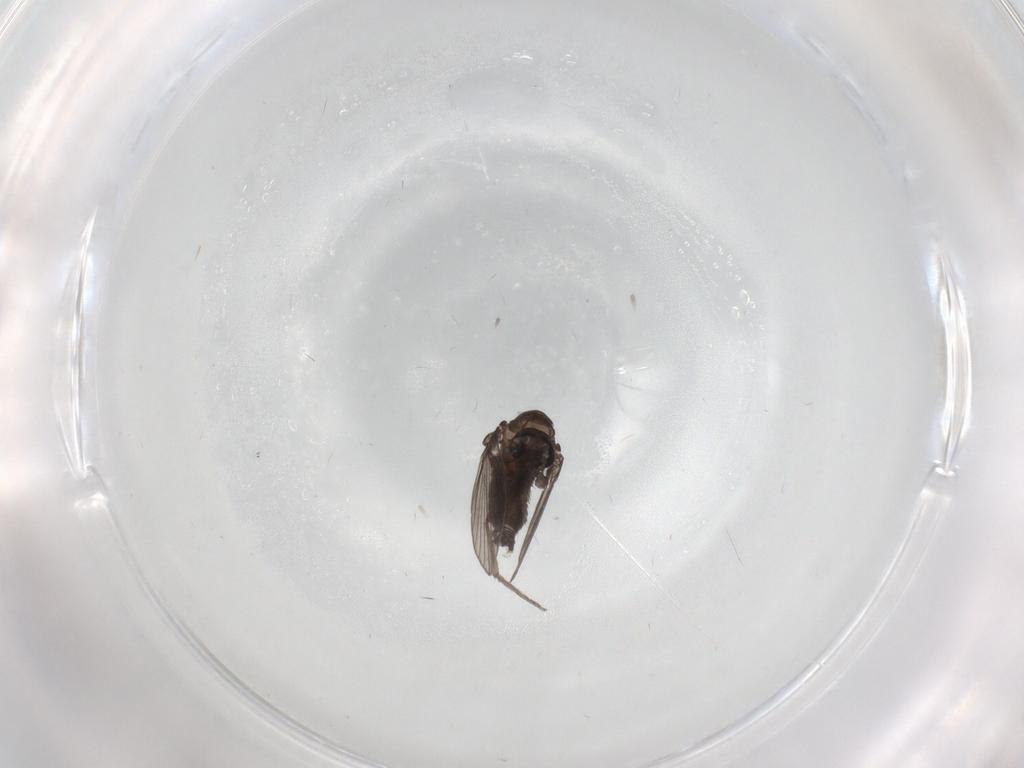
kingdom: Animalia
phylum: Arthropoda
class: Insecta
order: Diptera
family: Psychodidae
